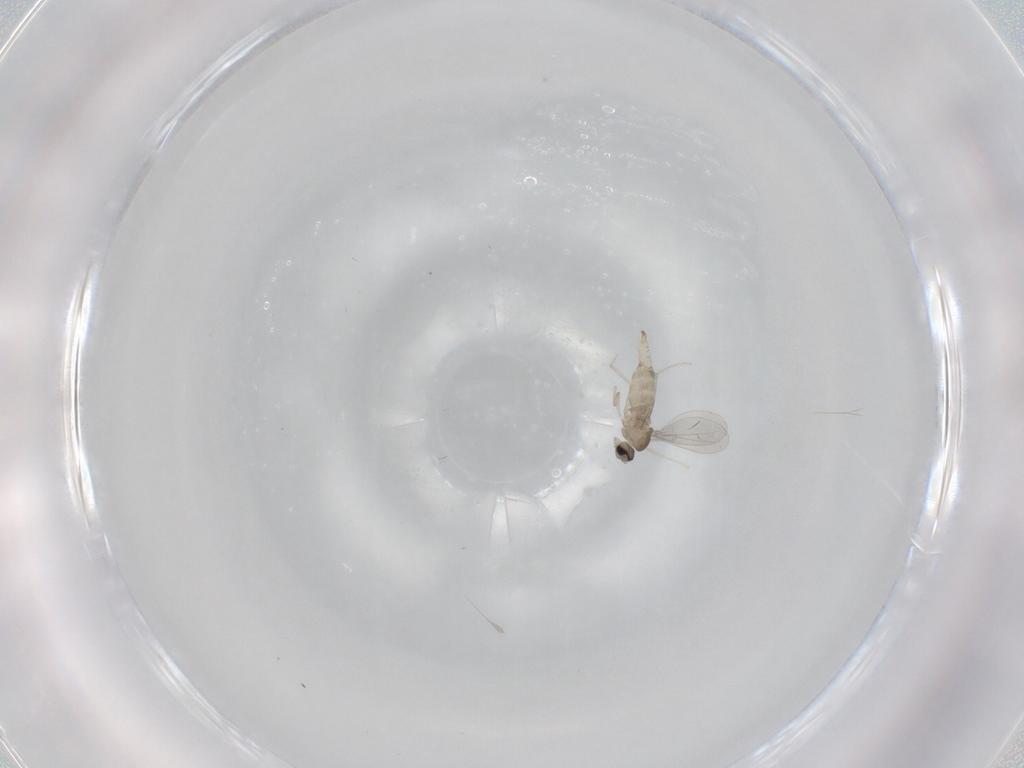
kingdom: Animalia
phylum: Arthropoda
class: Insecta
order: Diptera
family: Cecidomyiidae
